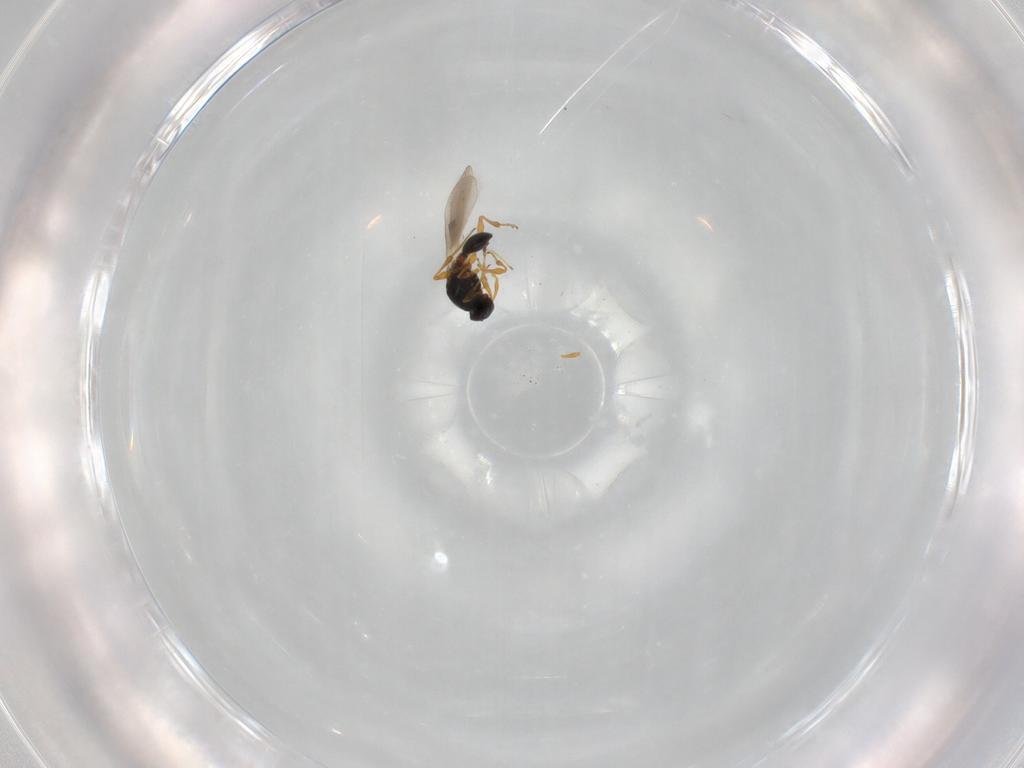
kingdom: Animalia
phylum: Arthropoda
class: Insecta
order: Hymenoptera
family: Platygastridae
